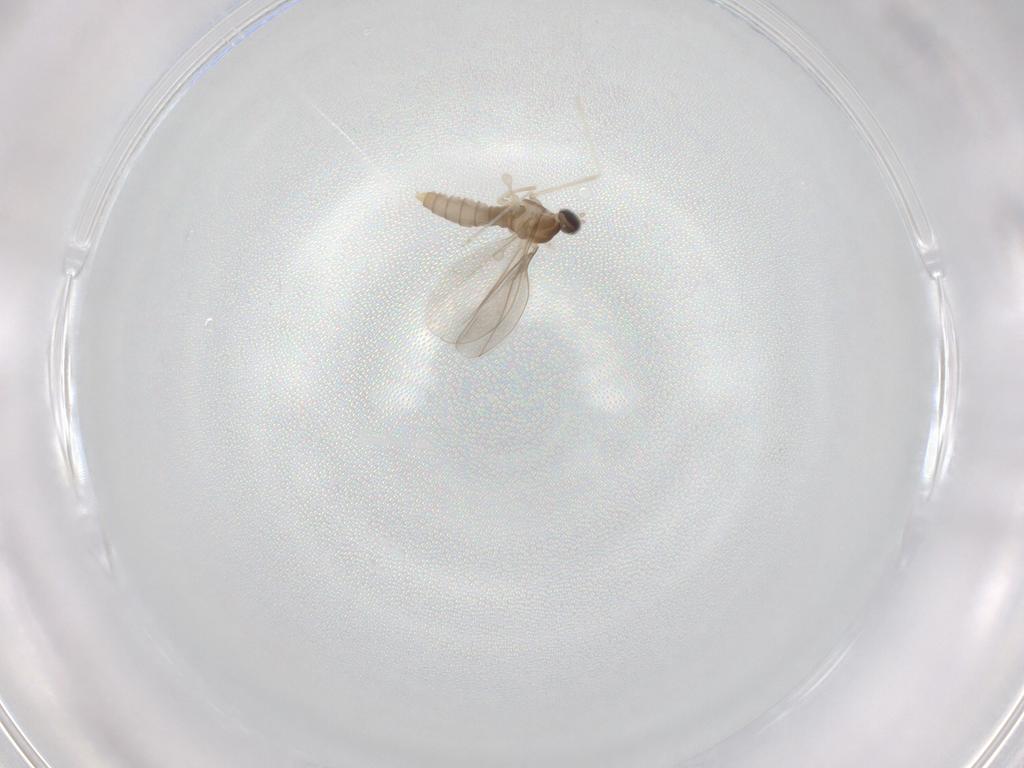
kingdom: Animalia
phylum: Arthropoda
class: Insecta
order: Diptera
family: Cecidomyiidae
